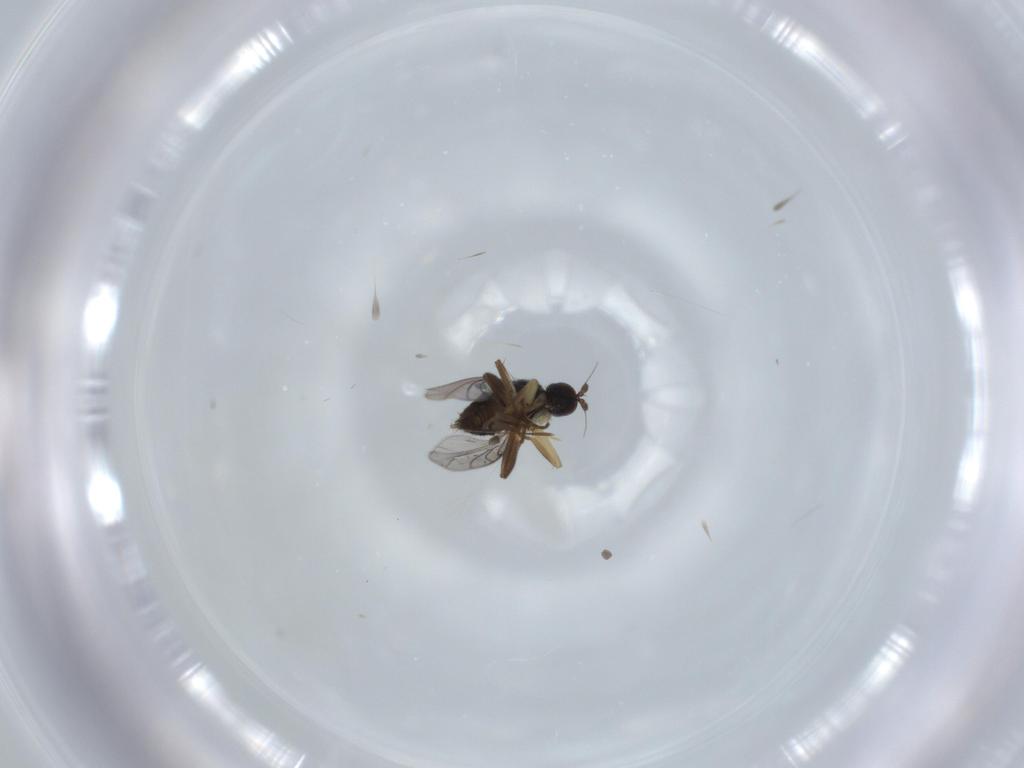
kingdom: Animalia
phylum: Arthropoda
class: Insecta
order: Diptera
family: Hybotidae
